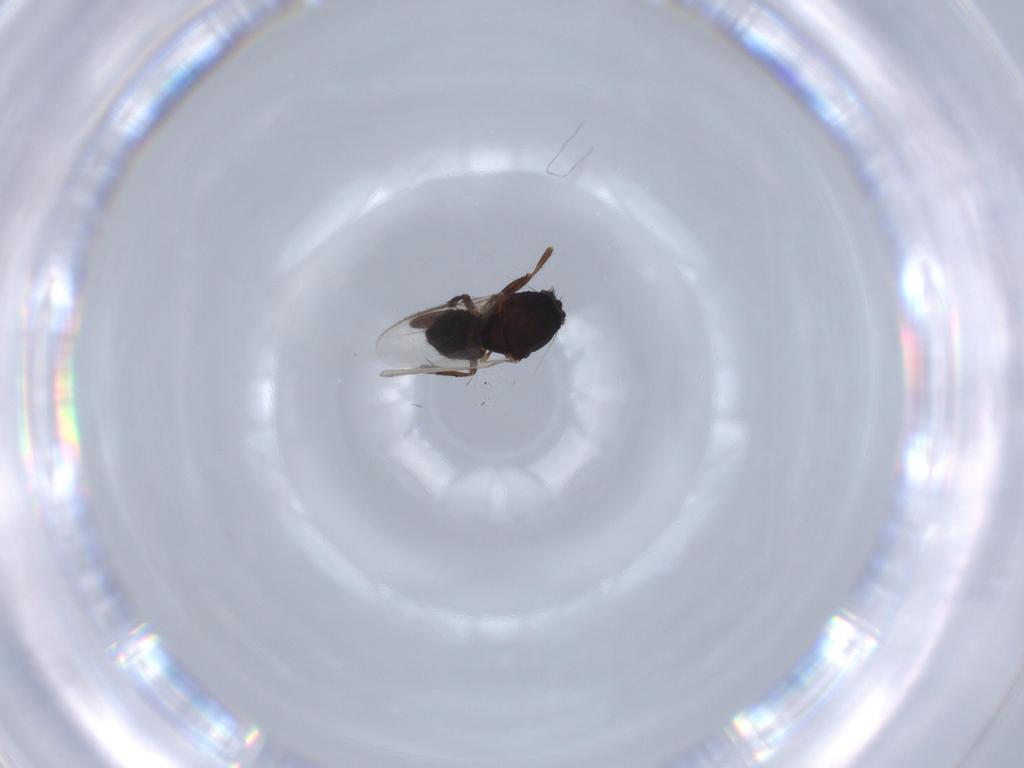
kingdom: Animalia
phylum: Arthropoda
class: Insecta
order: Diptera
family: Sphaeroceridae
